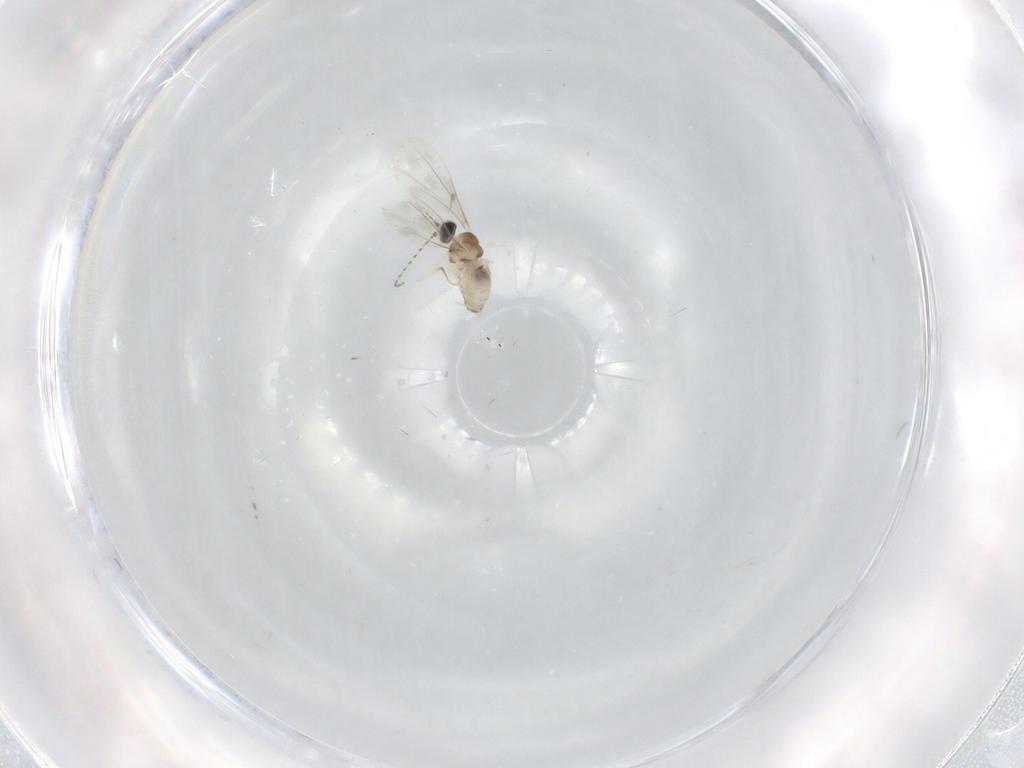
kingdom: Animalia
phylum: Arthropoda
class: Insecta
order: Diptera
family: Cecidomyiidae
